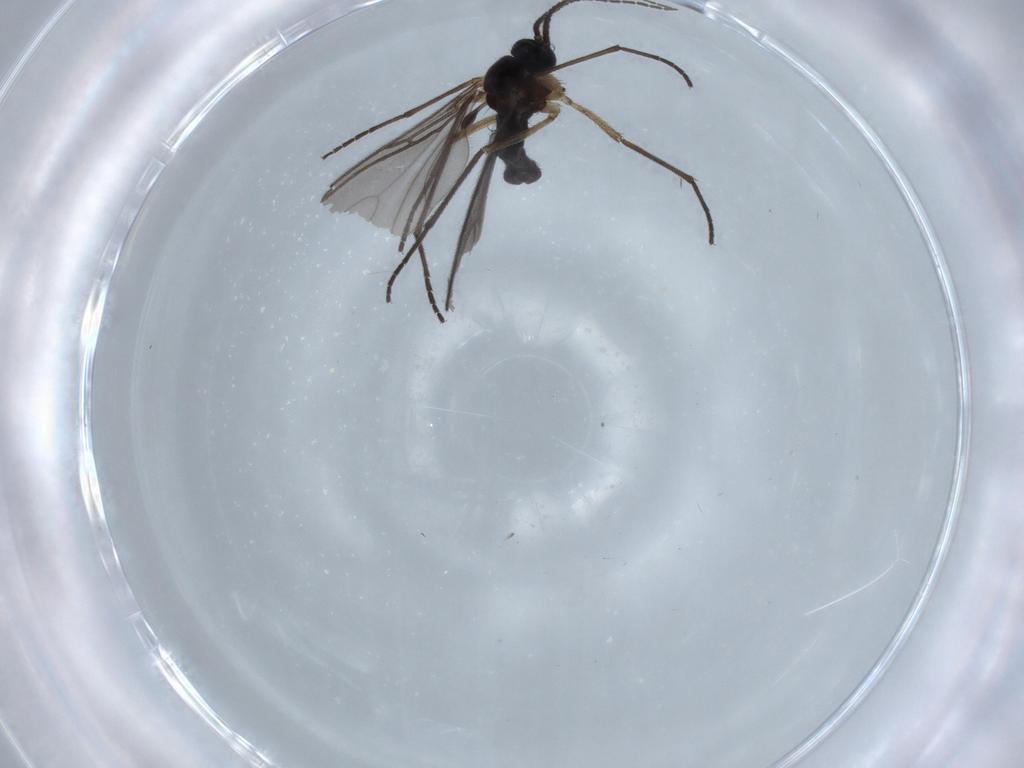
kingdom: Animalia
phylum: Arthropoda
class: Insecta
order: Diptera
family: Sciaridae
